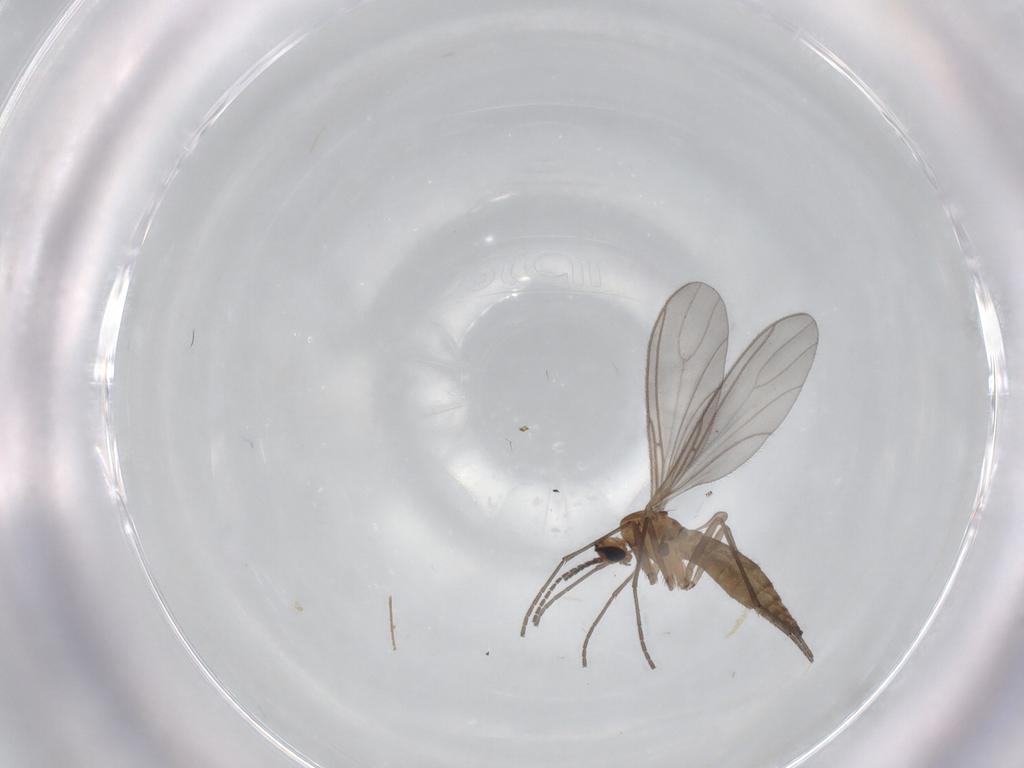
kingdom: Animalia
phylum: Arthropoda
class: Insecta
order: Diptera
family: Sciaridae
